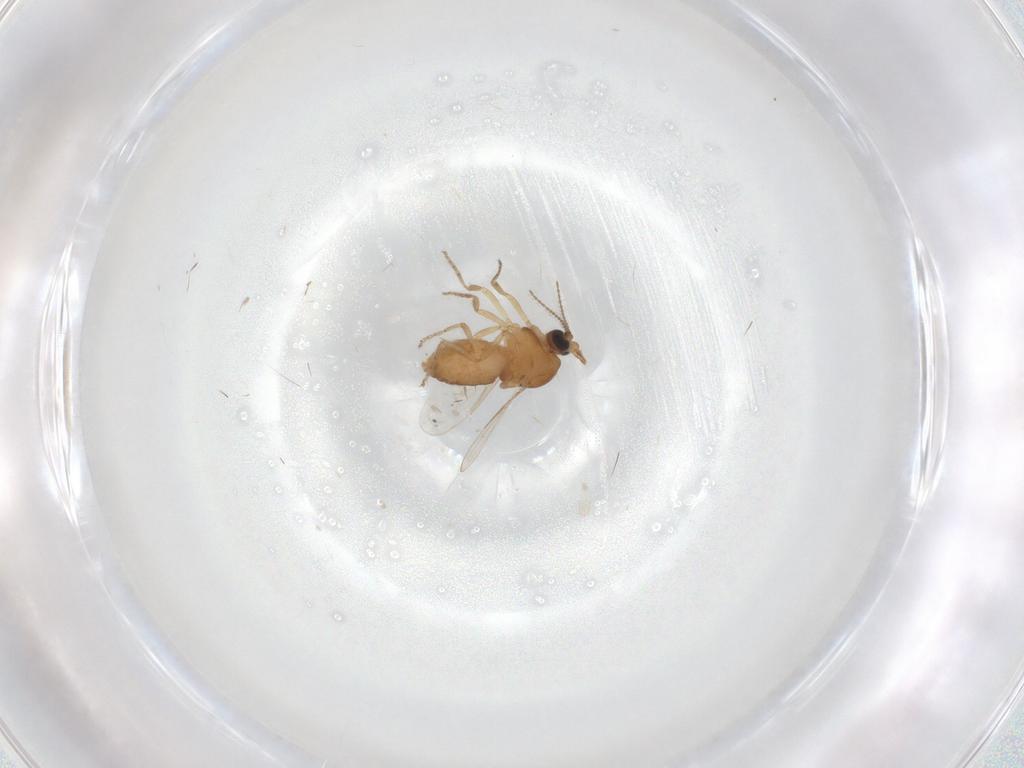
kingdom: Animalia
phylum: Arthropoda
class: Insecta
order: Diptera
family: Ceratopogonidae
